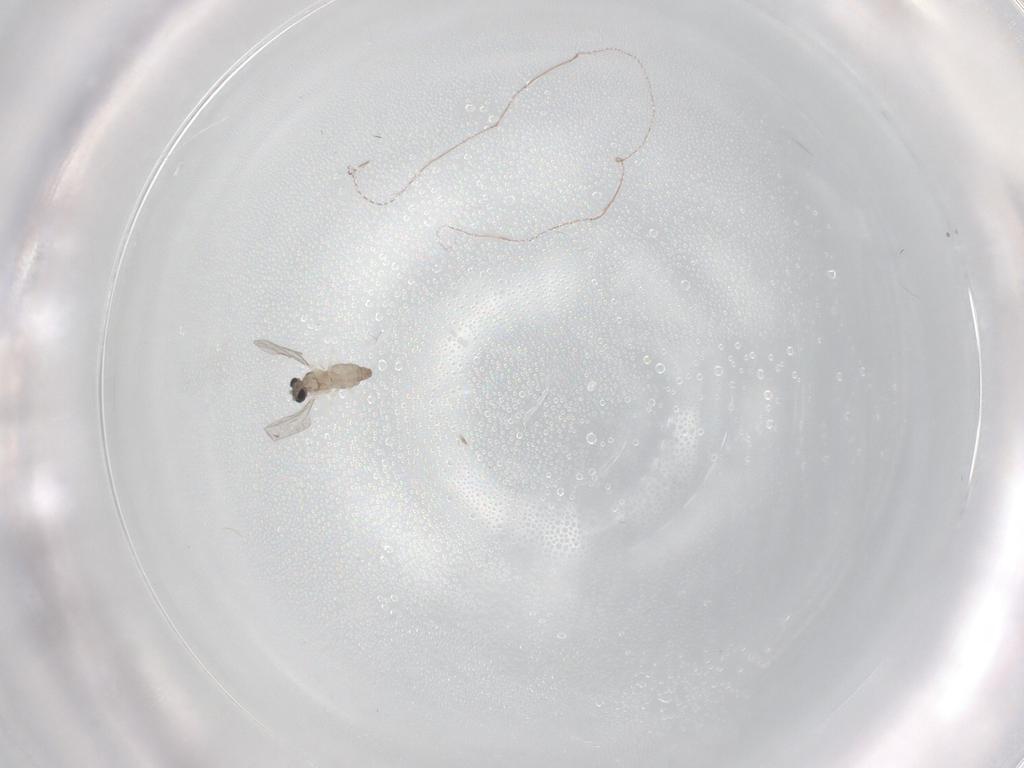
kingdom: Animalia
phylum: Arthropoda
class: Insecta
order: Diptera
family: Cecidomyiidae
